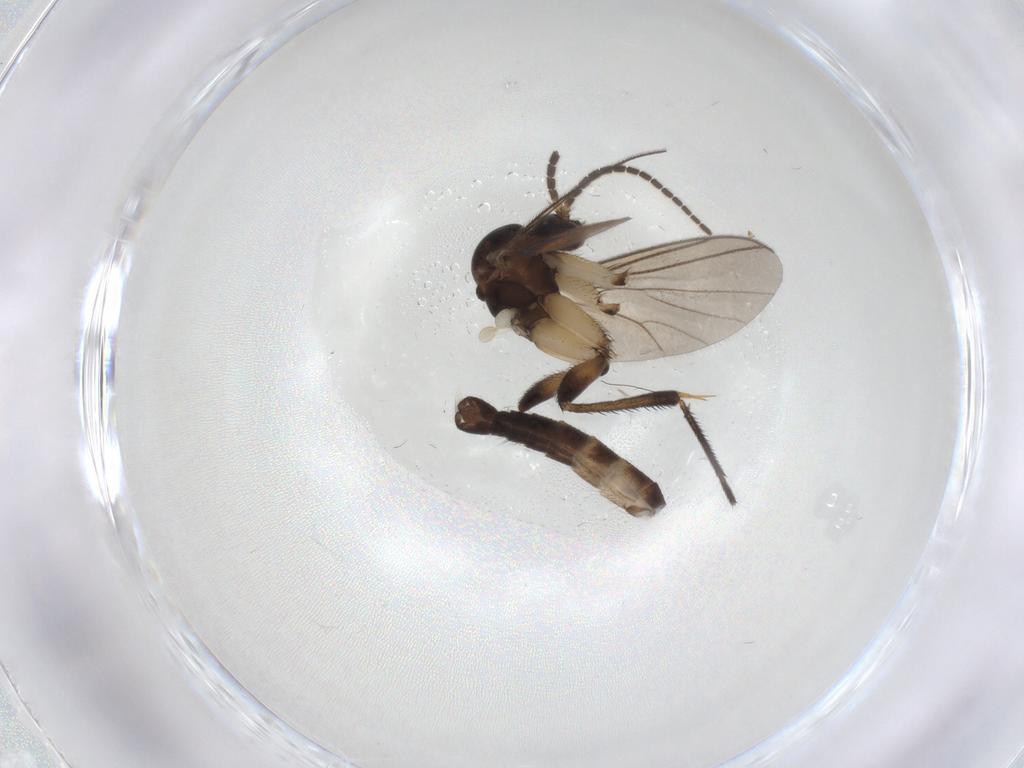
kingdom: Animalia
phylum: Arthropoda
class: Insecta
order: Diptera
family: Mycetophilidae
